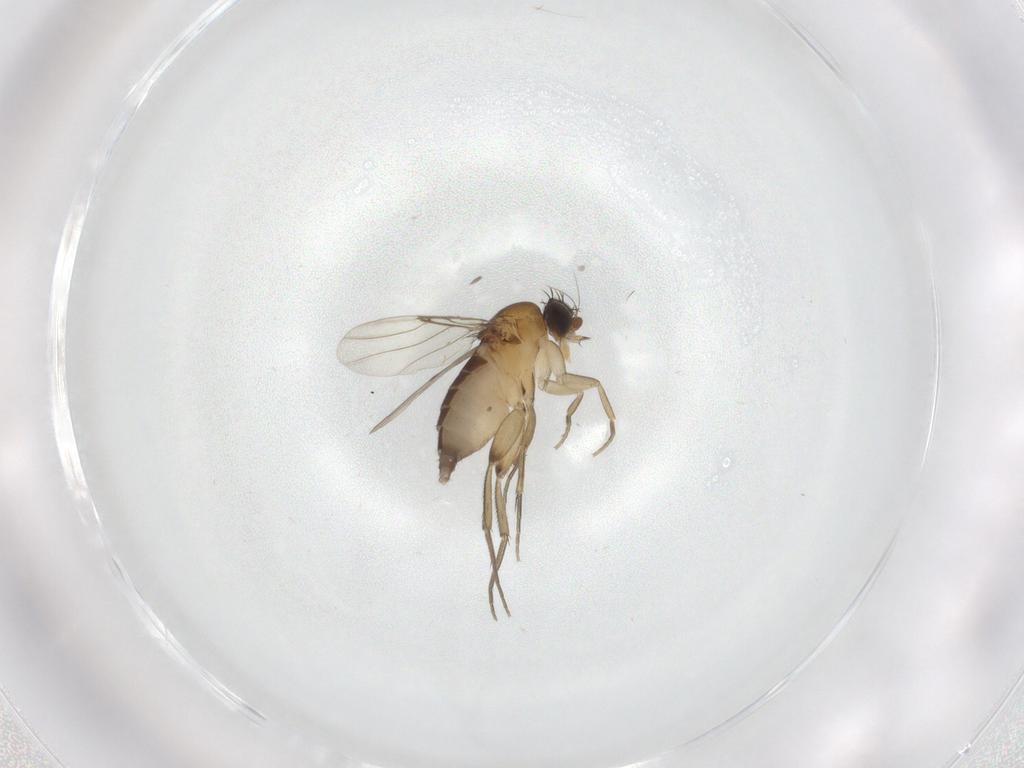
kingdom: Animalia
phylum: Arthropoda
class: Insecta
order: Diptera
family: Phoridae
